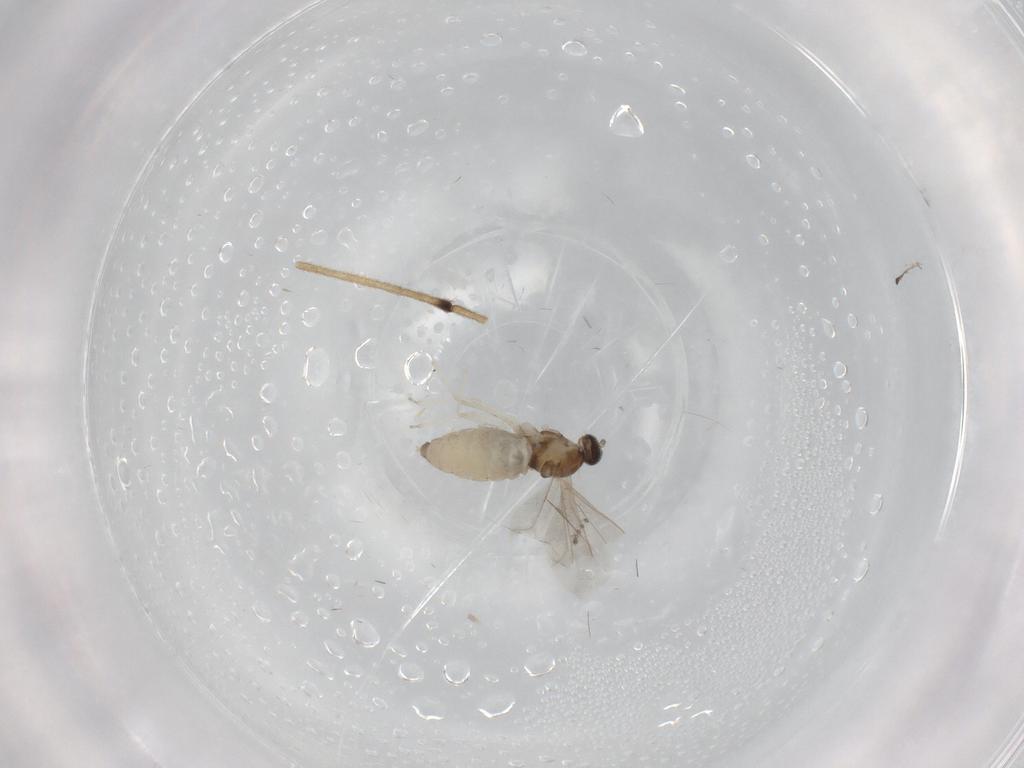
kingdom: Animalia
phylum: Arthropoda
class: Insecta
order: Diptera
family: Cecidomyiidae
